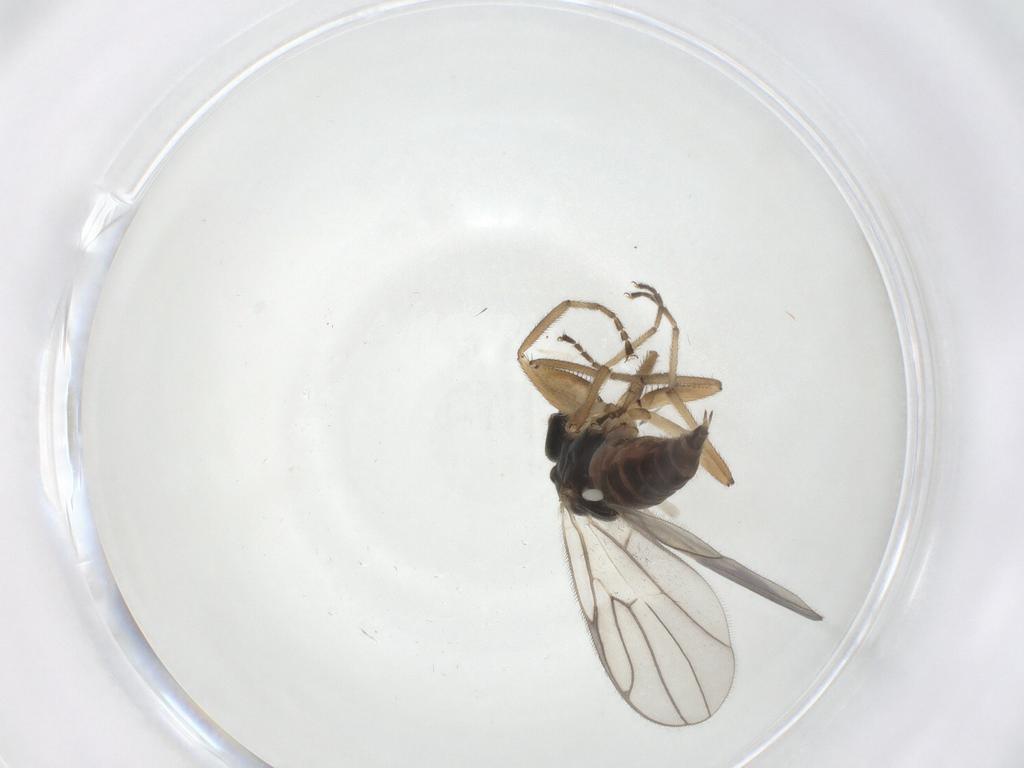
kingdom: Animalia
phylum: Arthropoda
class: Insecta
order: Diptera
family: Hybotidae
